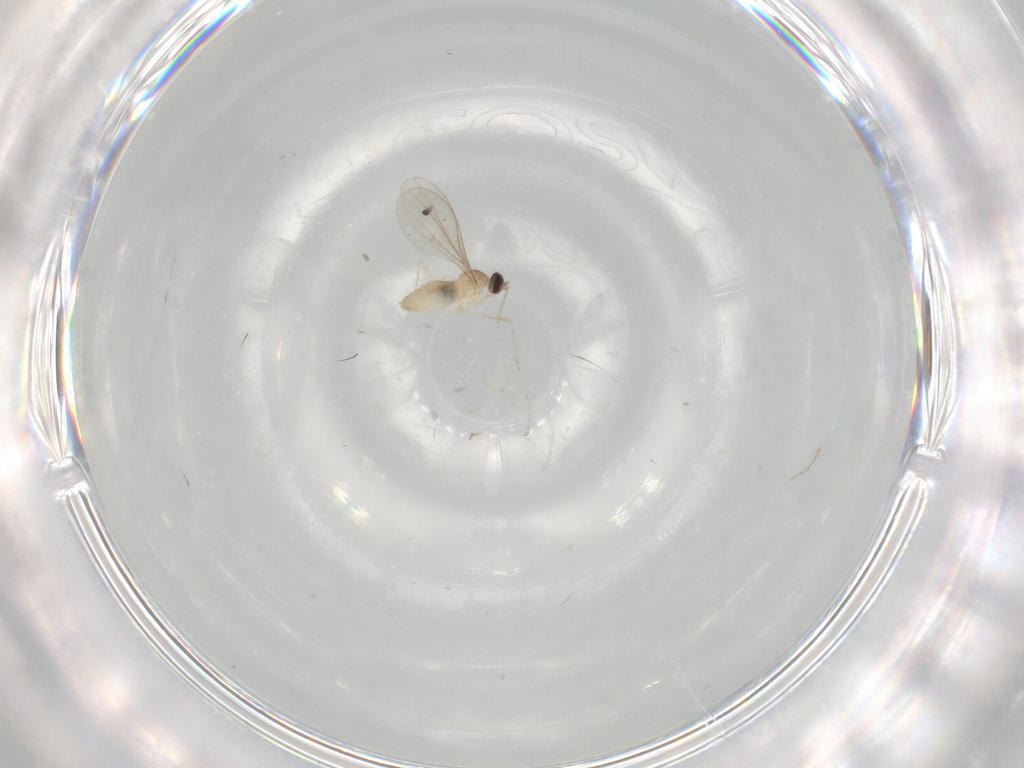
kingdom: Animalia
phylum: Arthropoda
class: Insecta
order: Diptera
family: Cecidomyiidae
